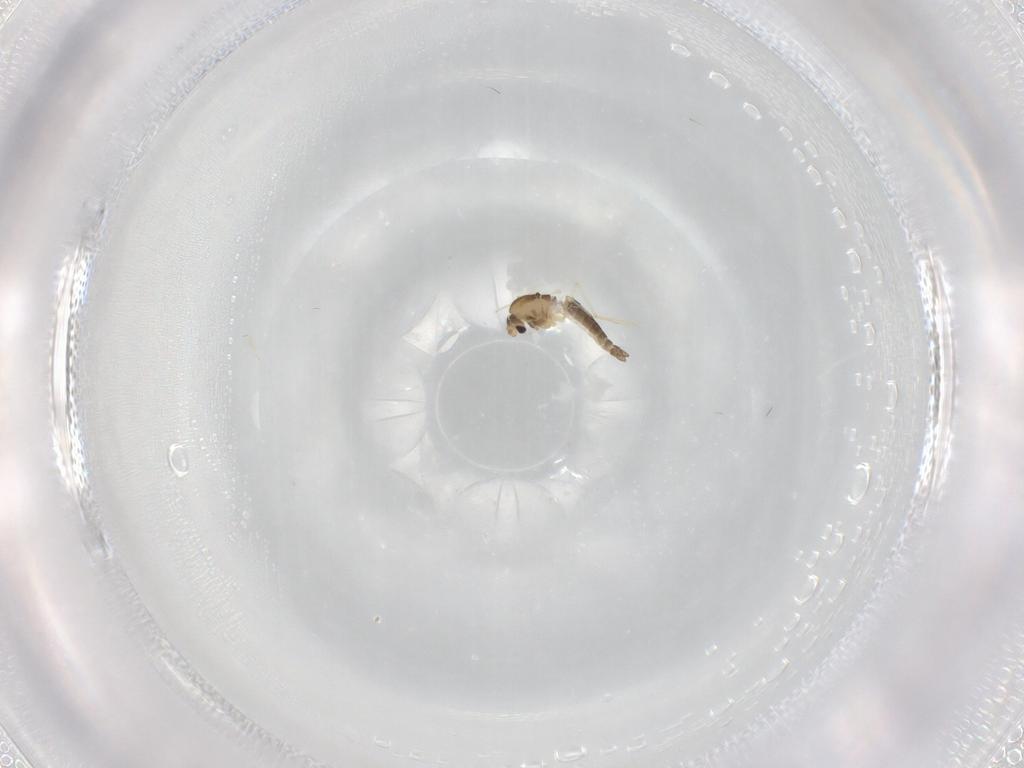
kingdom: Animalia
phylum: Arthropoda
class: Insecta
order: Diptera
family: Chironomidae
